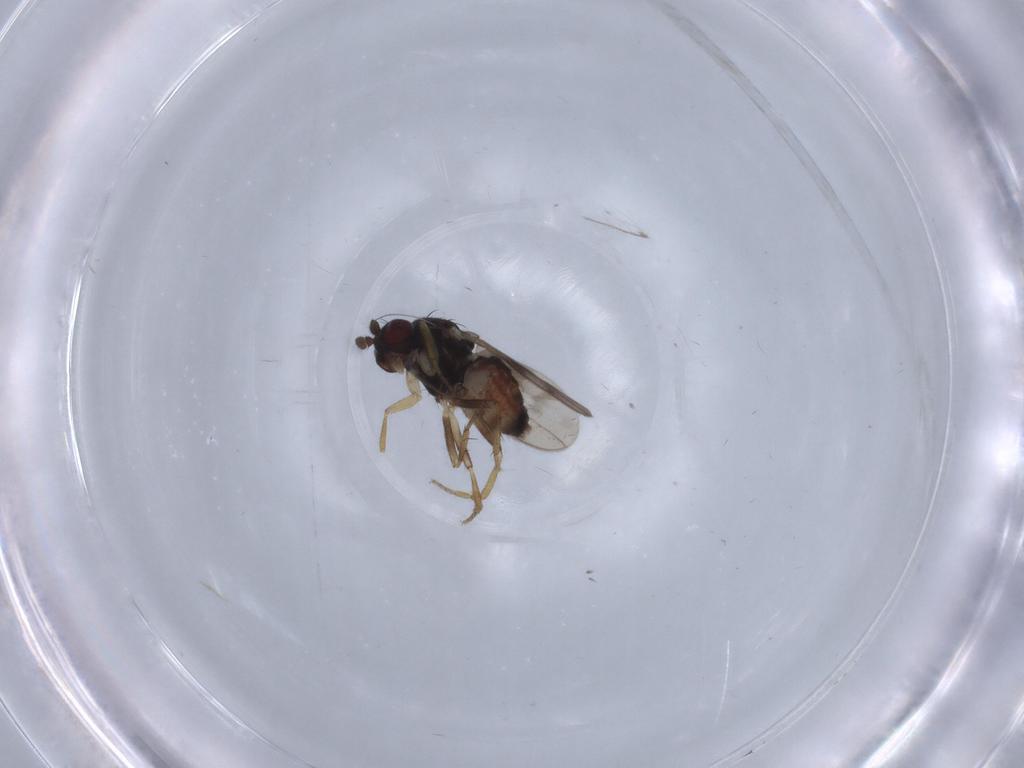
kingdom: Animalia
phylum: Arthropoda
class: Insecta
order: Diptera
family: Sphaeroceridae
